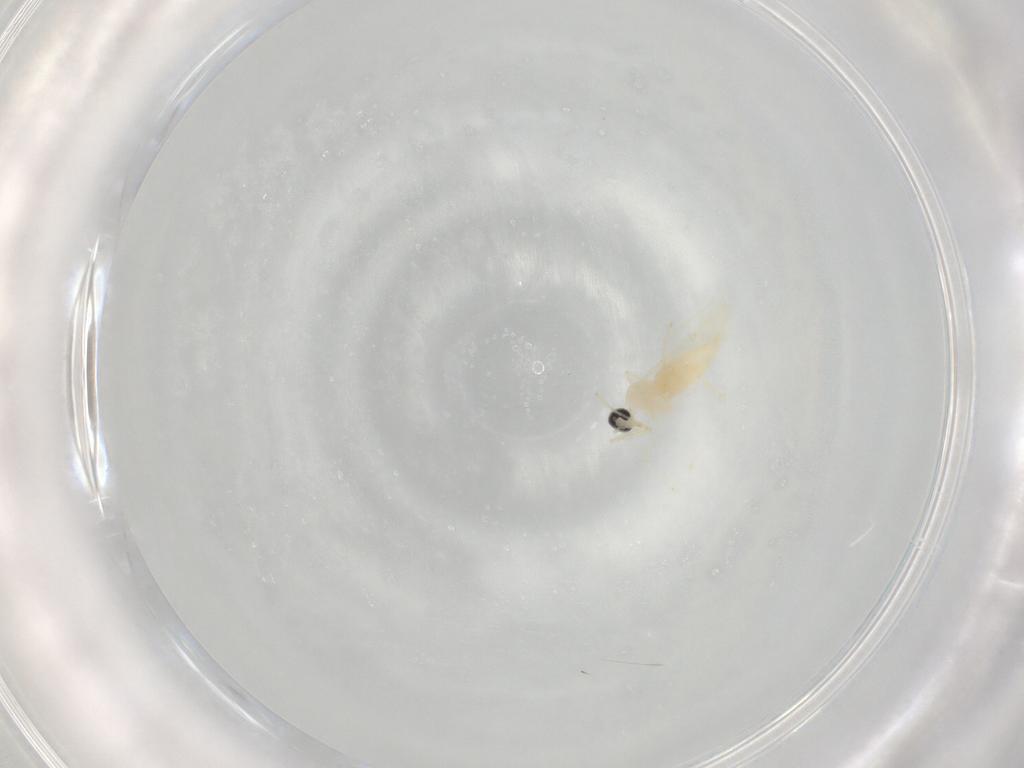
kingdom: Animalia
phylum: Arthropoda
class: Insecta
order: Diptera
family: Cecidomyiidae
